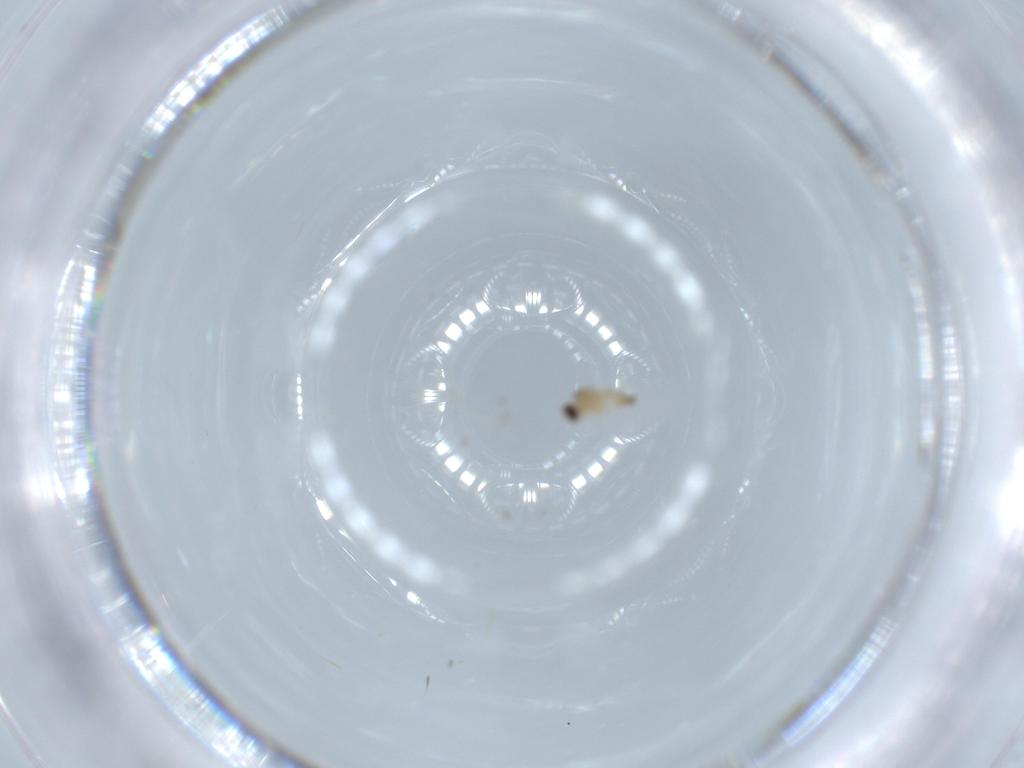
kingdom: Animalia
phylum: Arthropoda
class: Insecta
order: Diptera
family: Cecidomyiidae
